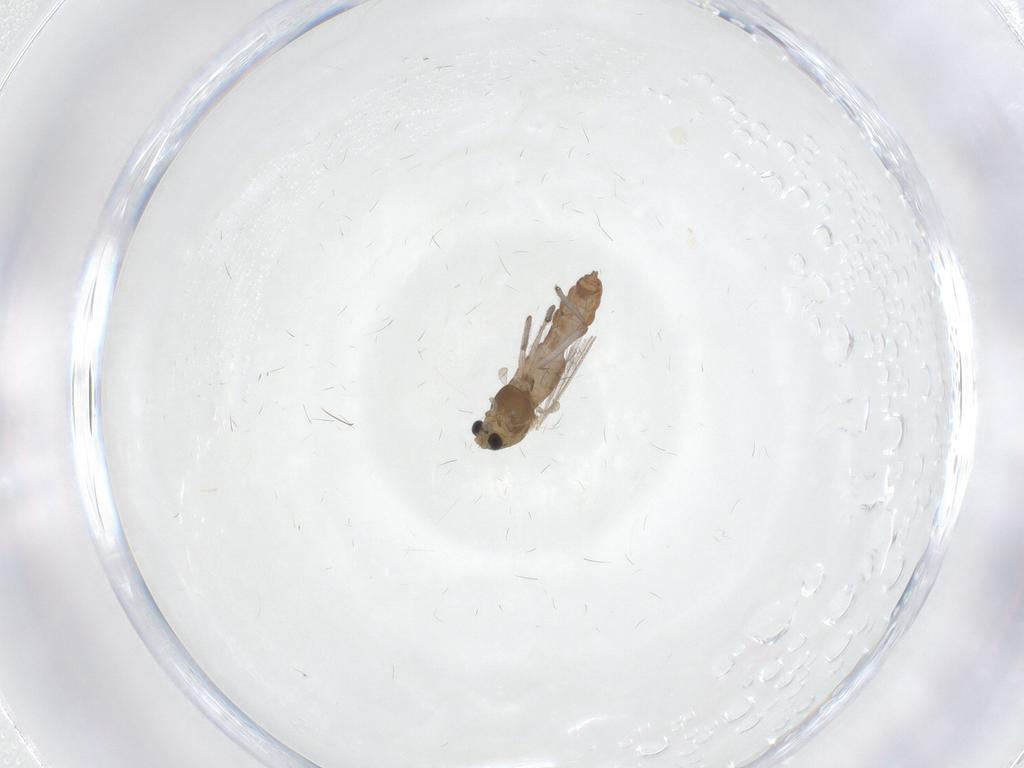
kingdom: Animalia
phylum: Arthropoda
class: Insecta
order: Diptera
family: Chironomidae
